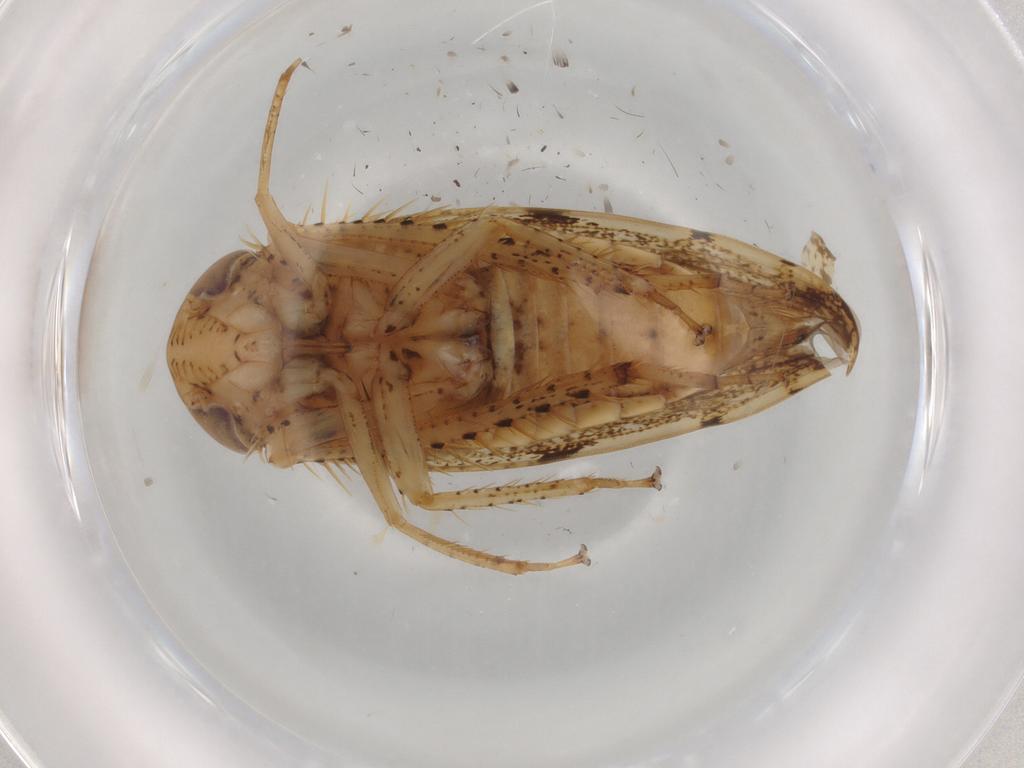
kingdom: Animalia
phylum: Arthropoda
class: Insecta
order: Hemiptera
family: Cicadellidae
